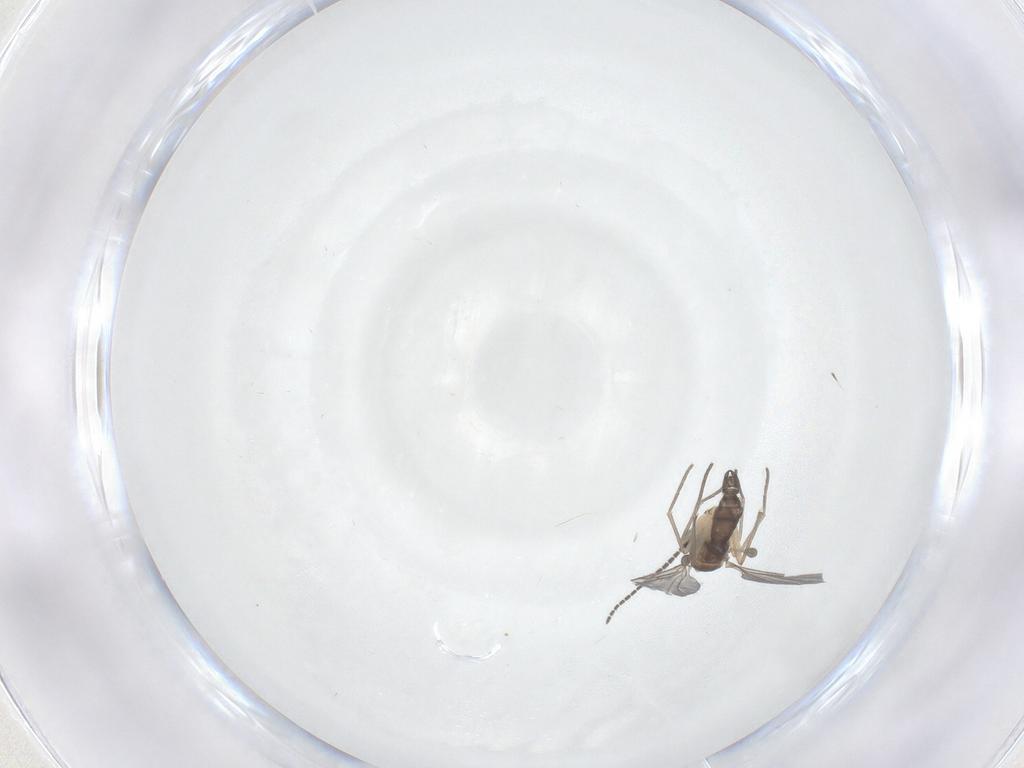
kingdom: Animalia
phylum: Arthropoda
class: Insecta
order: Diptera
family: Sciaridae
